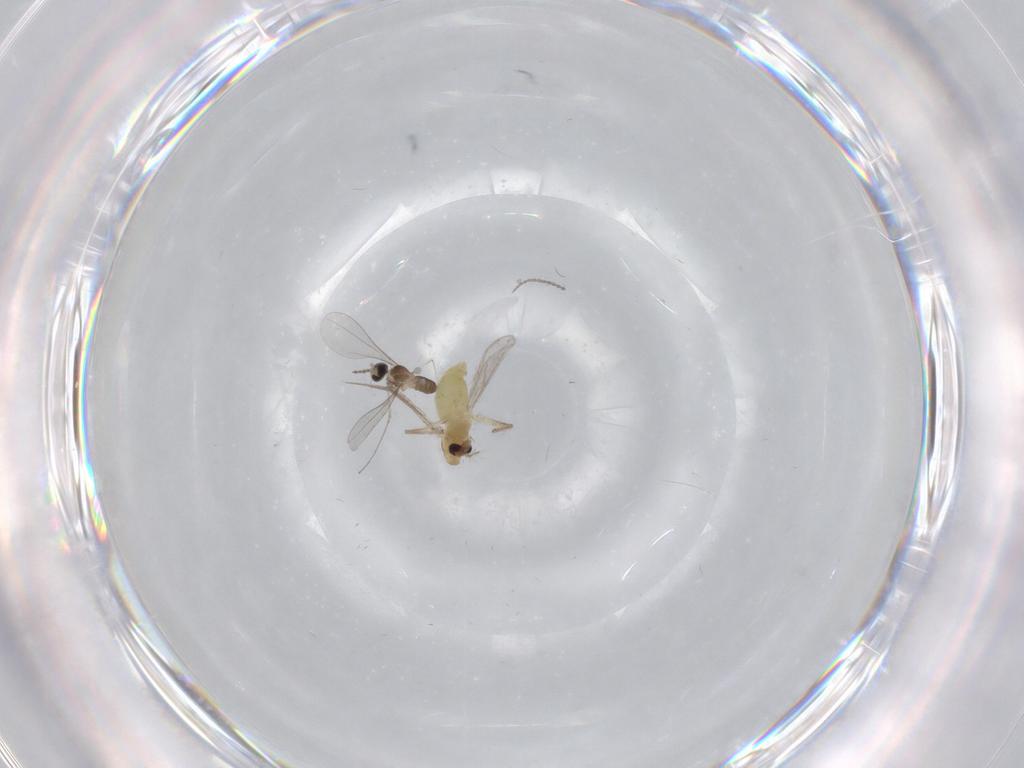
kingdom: Animalia
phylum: Arthropoda
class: Insecta
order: Diptera
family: Chironomidae
